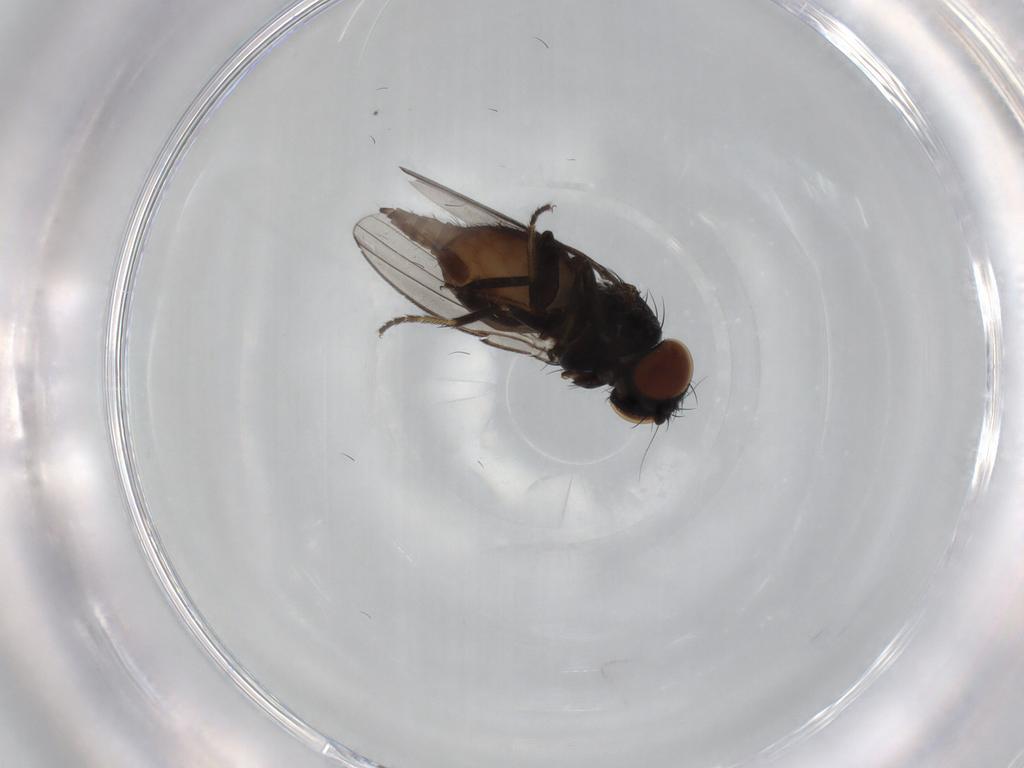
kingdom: Animalia
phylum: Arthropoda
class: Insecta
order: Diptera
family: Milichiidae
